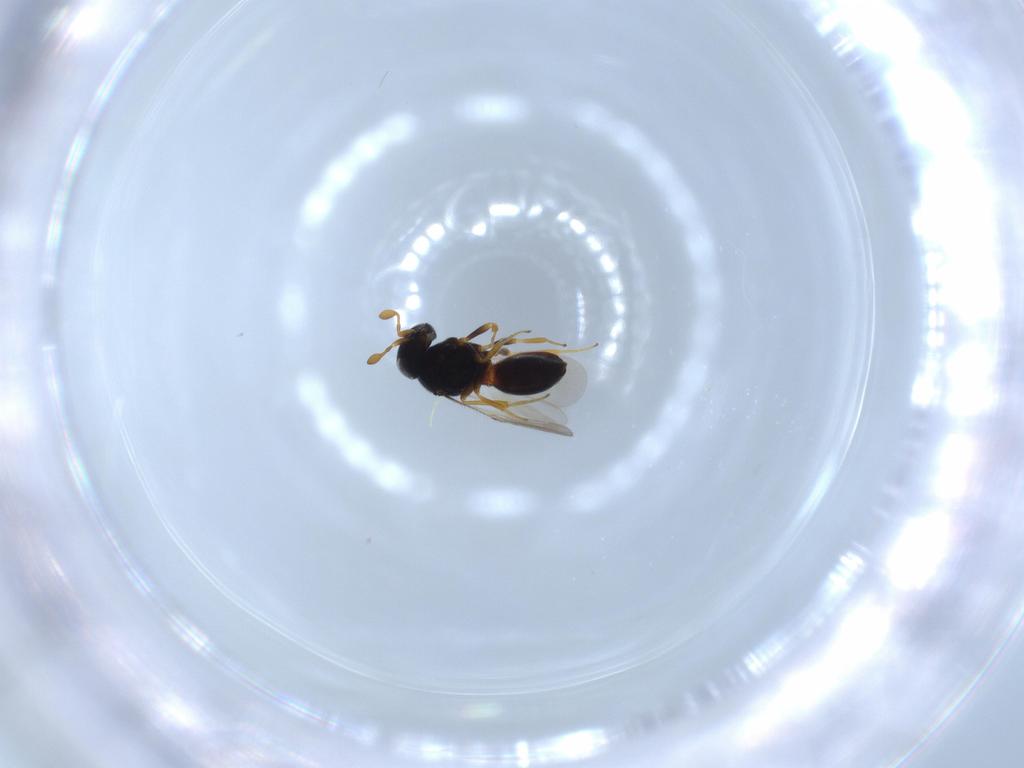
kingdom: Animalia
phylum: Arthropoda
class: Insecta
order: Hymenoptera
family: Scelionidae
